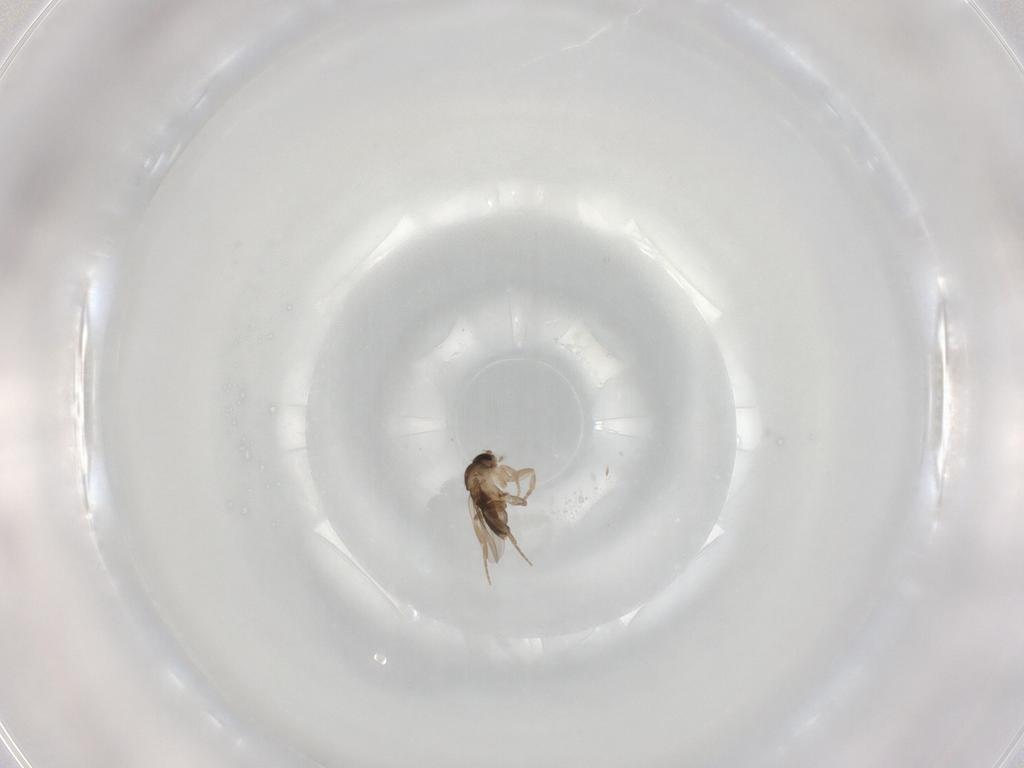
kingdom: Animalia
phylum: Arthropoda
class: Insecta
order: Diptera
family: Phoridae
